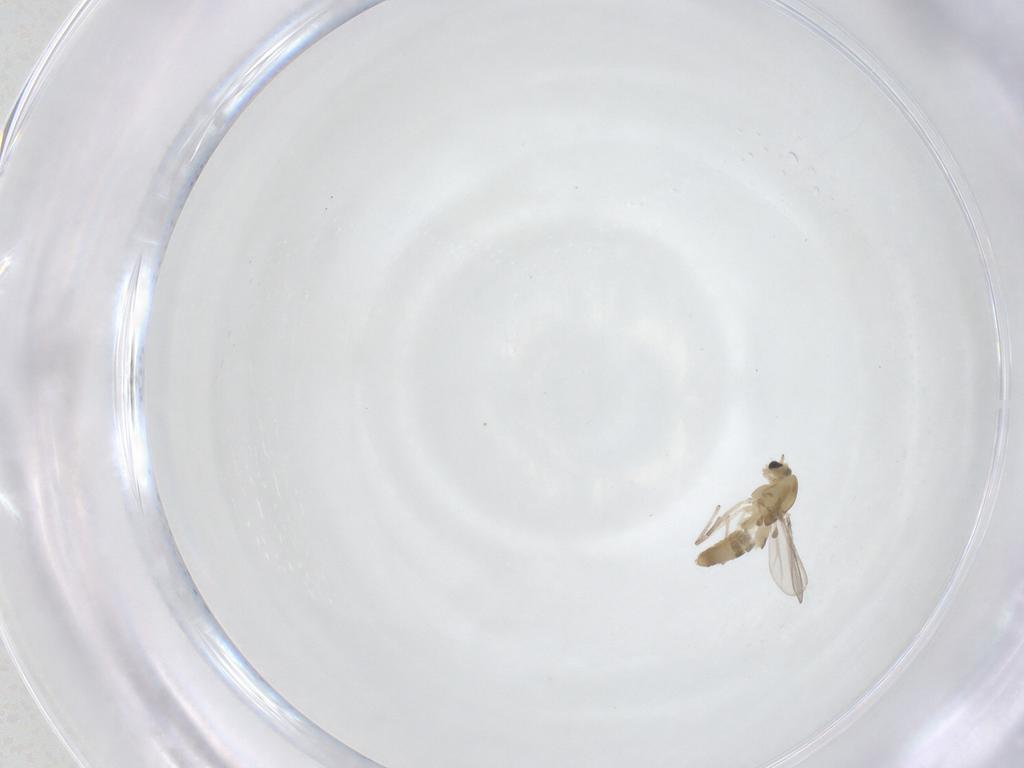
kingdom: Animalia
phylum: Arthropoda
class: Insecta
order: Diptera
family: Chironomidae
